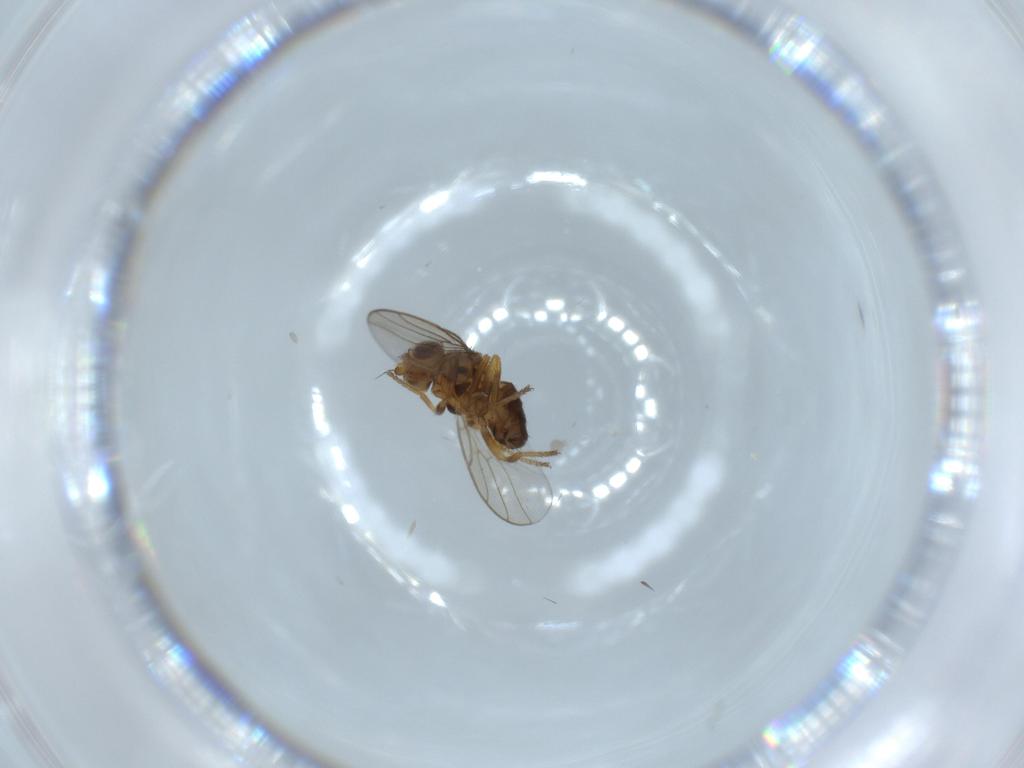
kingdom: Animalia
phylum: Arthropoda
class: Insecta
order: Diptera
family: Chloropidae
